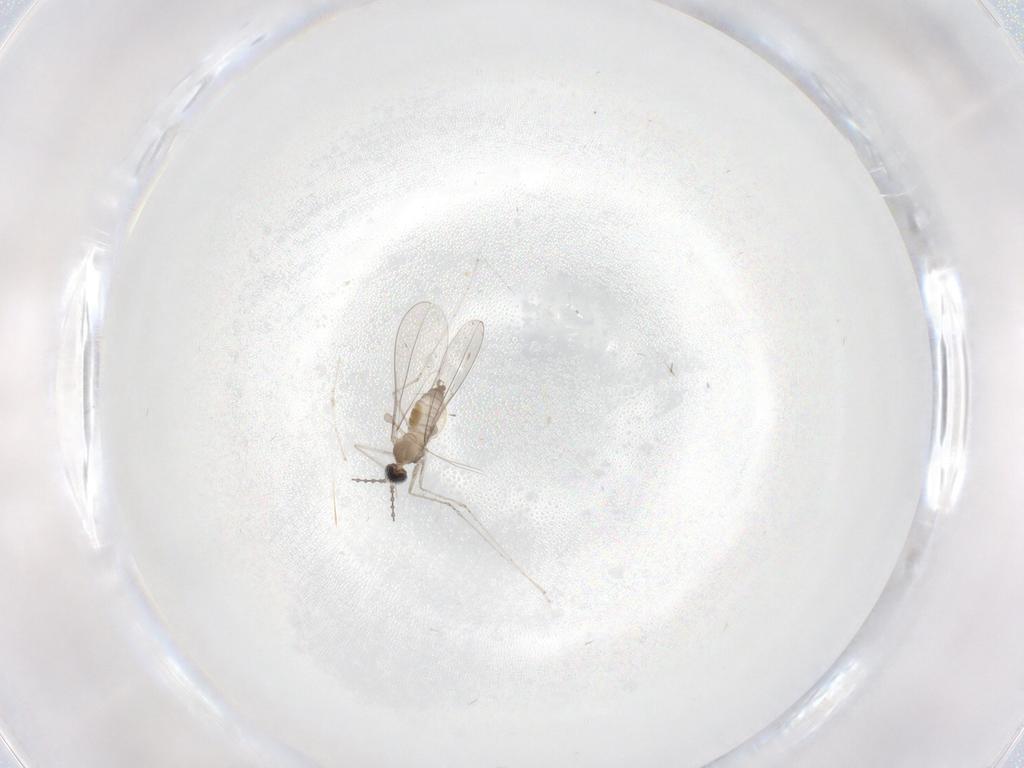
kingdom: Animalia
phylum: Arthropoda
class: Insecta
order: Diptera
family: Cecidomyiidae
